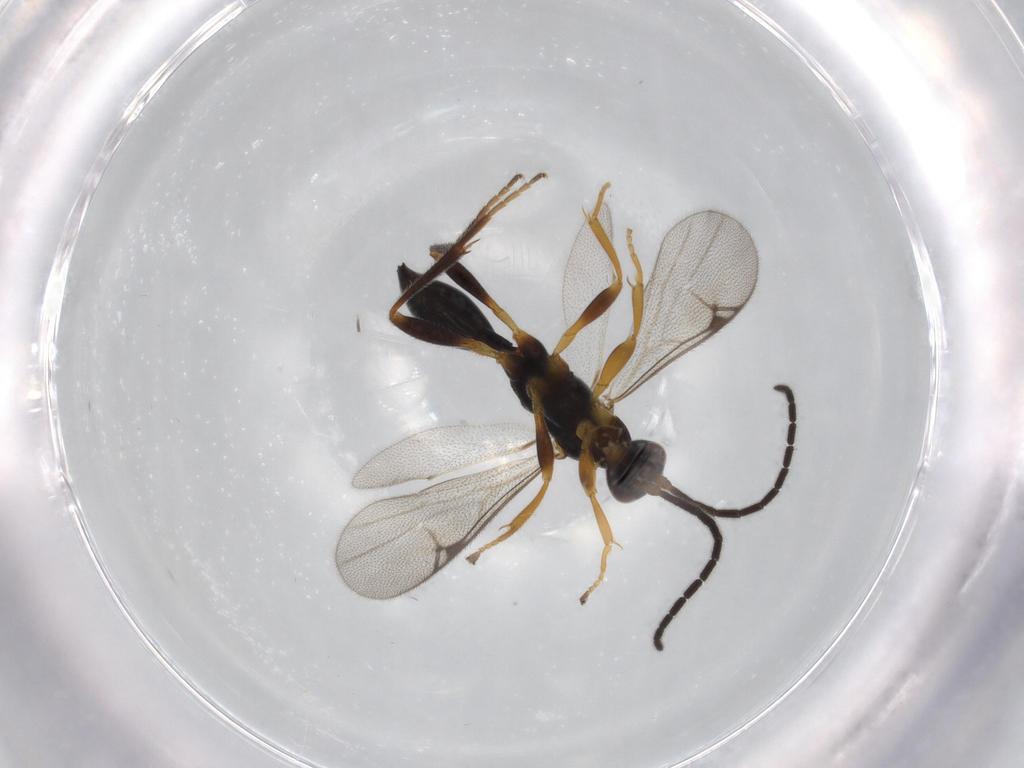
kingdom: Animalia
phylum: Arthropoda
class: Insecta
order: Hymenoptera
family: Proctotrupidae
